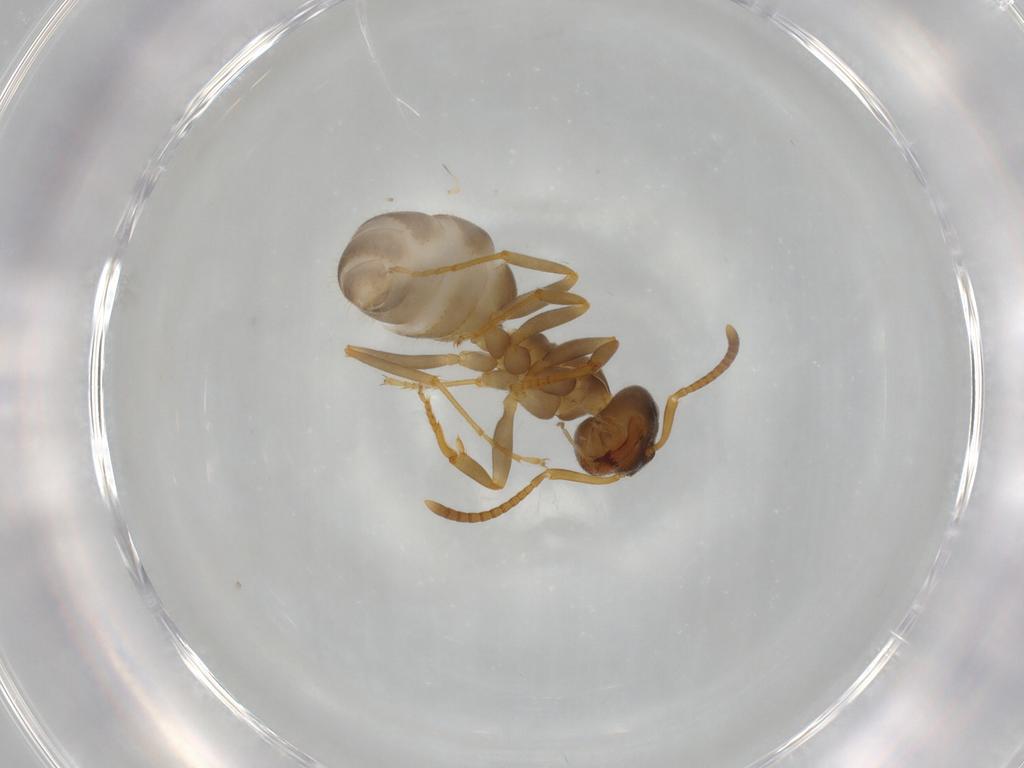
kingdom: Animalia
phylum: Arthropoda
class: Insecta
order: Hymenoptera
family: Formicidae
